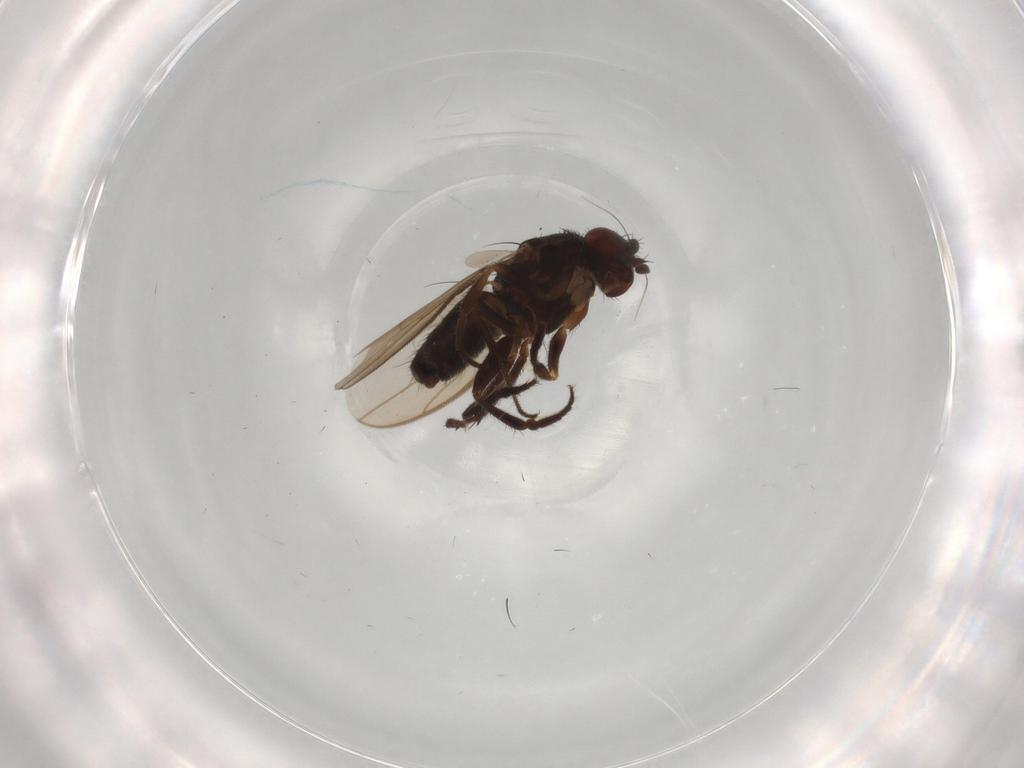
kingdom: Animalia
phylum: Arthropoda
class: Insecta
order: Diptera
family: Sphaeroceridae
